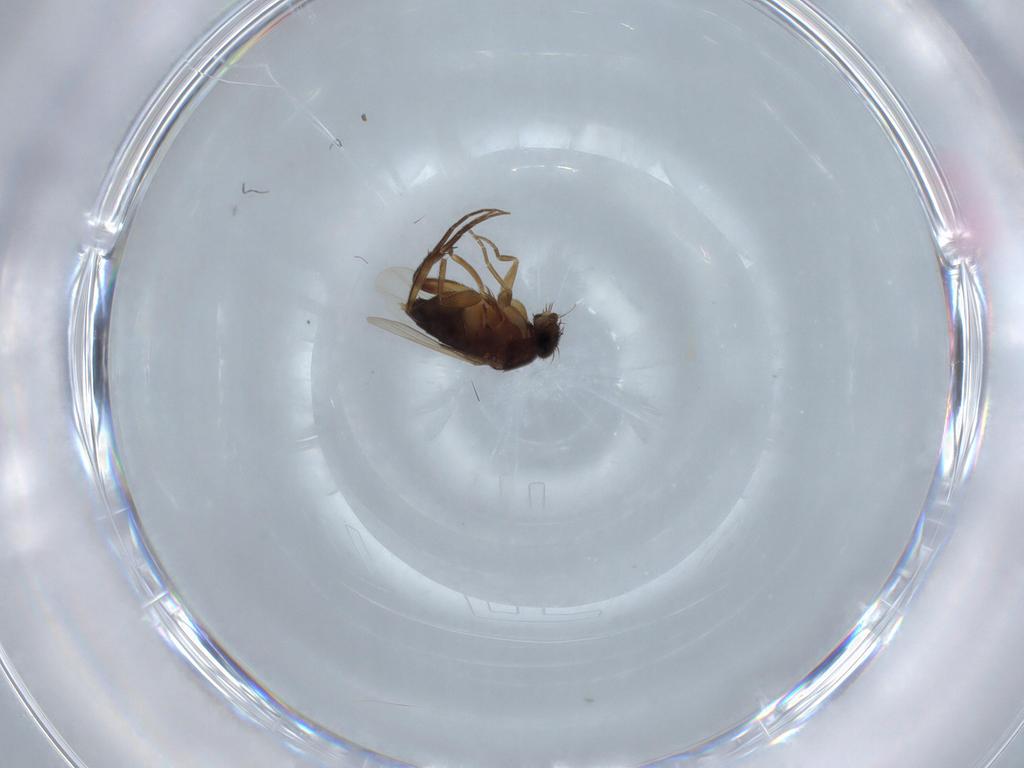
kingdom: Animalia
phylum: Arthropoda
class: Insecta
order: Diptera
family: Phoridae
